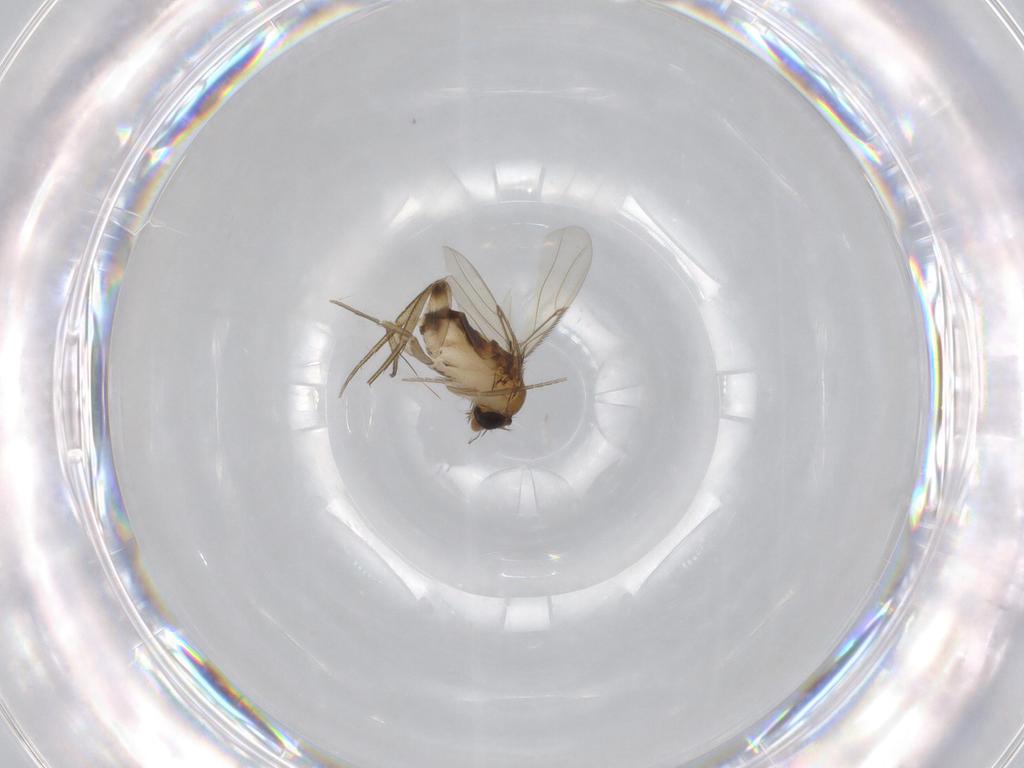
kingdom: Animalia
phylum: Arthropoda
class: Insecta
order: Diptera
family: Phoridae
